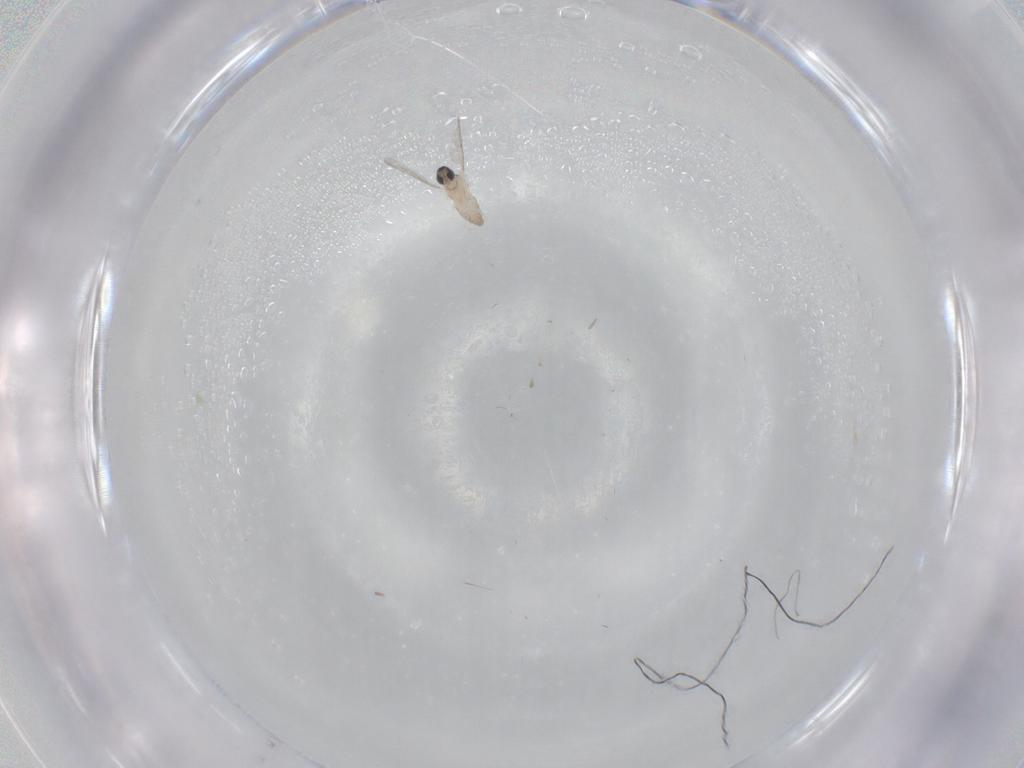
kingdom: Animalia
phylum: Arthropoda
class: Insecta
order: Diptera
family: Cecidomyiidae
